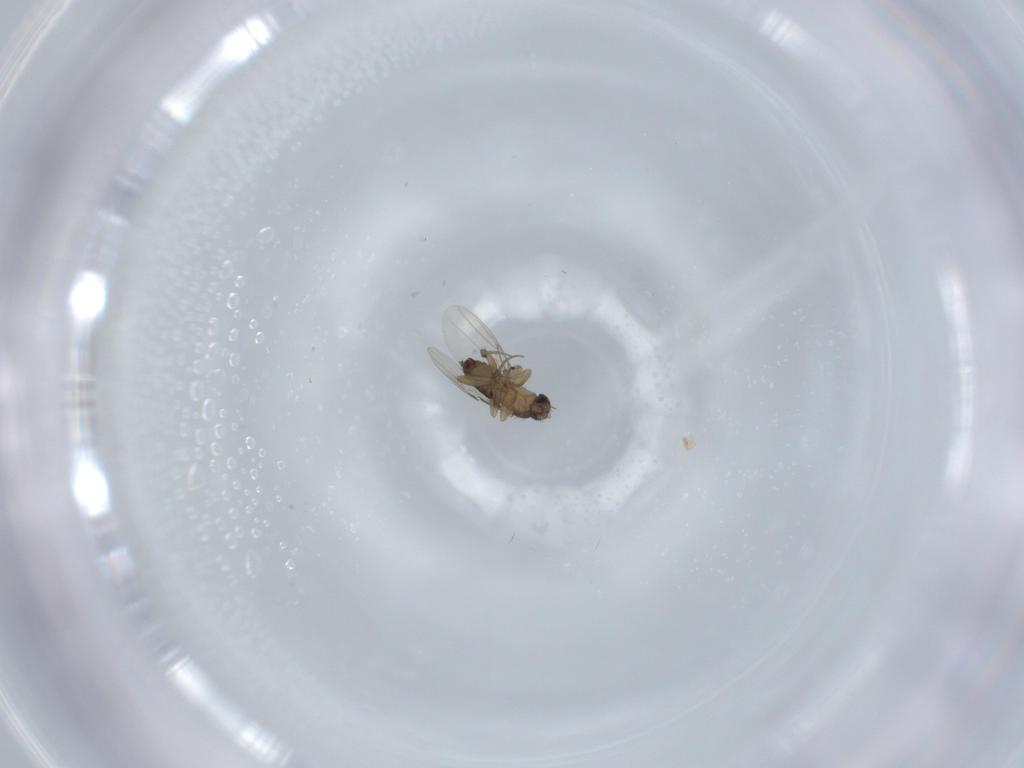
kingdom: Animalia
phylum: Arthropoda
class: Insecta
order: Diptera
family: Phoridae
